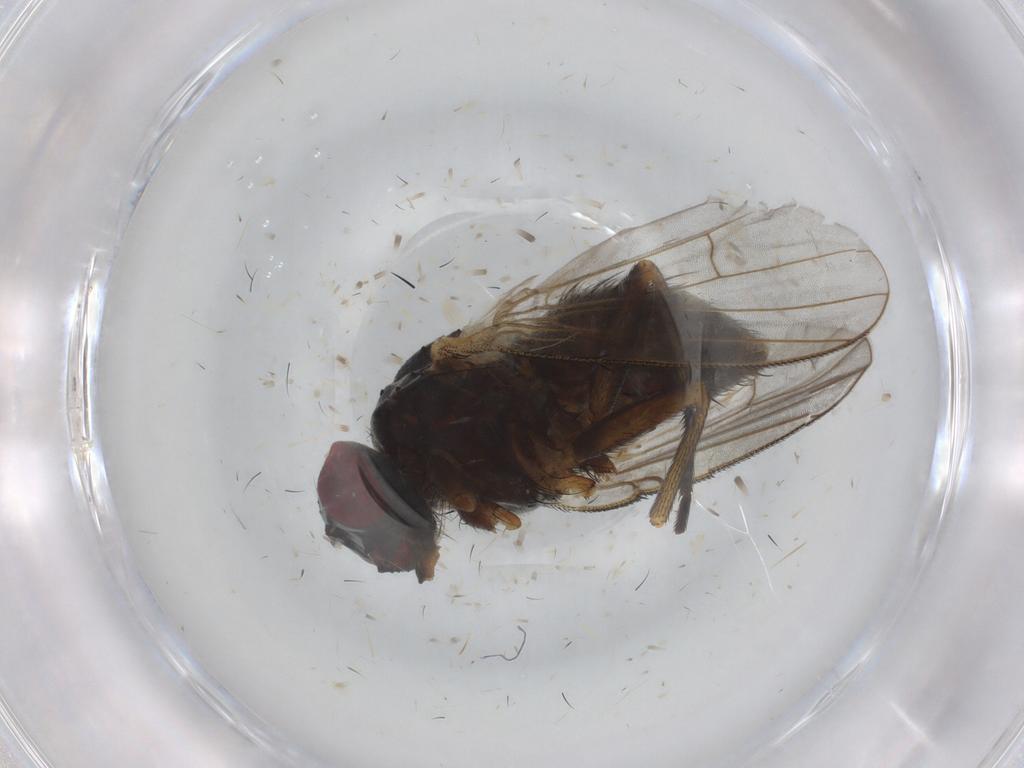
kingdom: Animalia
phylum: Arthropoda
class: Insecta
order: Diptera
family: Muscidae
